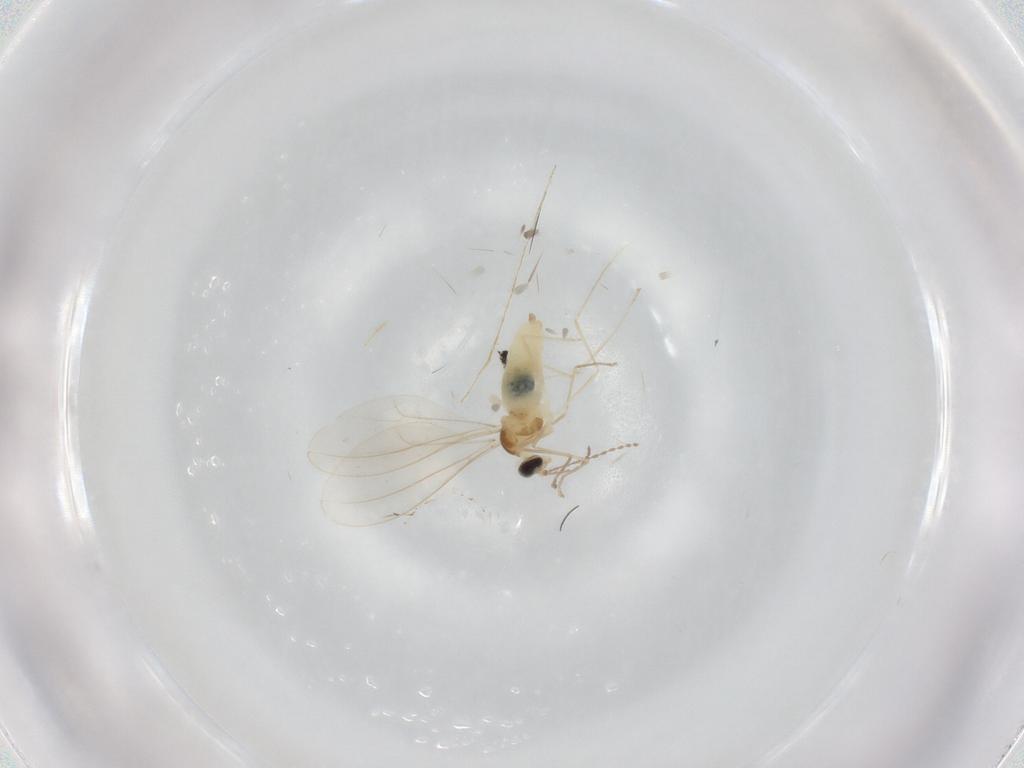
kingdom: Animalia
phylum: Arthropoda
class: Insecta
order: Diptera
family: Cecidomyiidae
